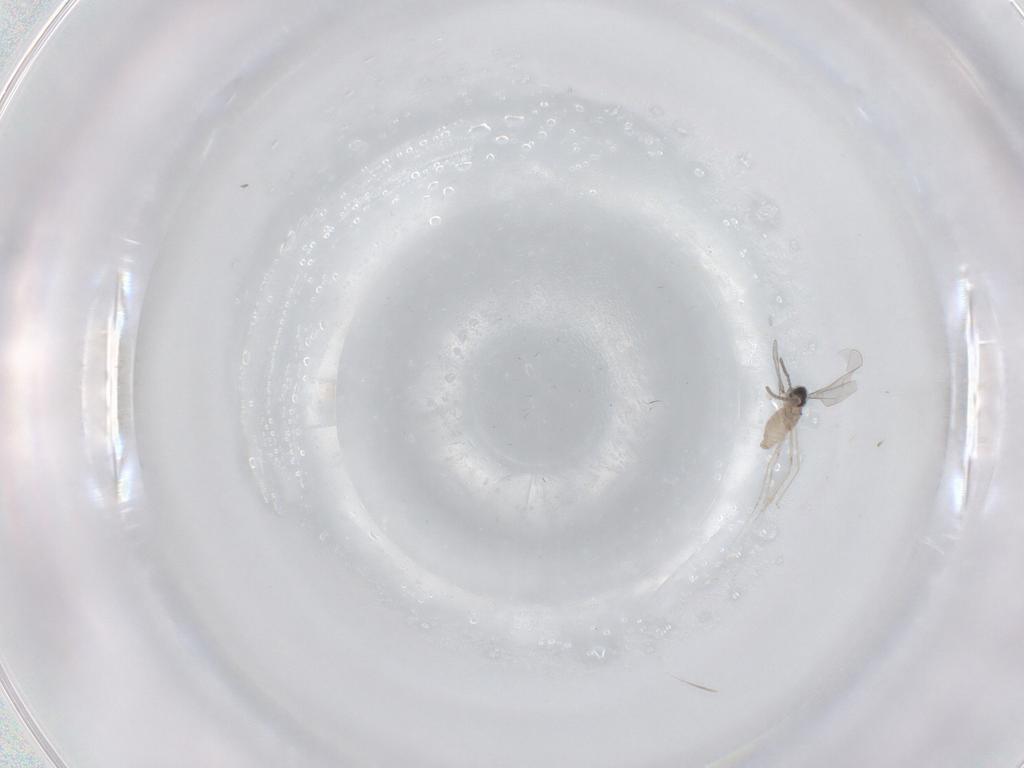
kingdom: Animalia
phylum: Arthropoda
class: Insecta
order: Diptera
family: Cecidomyiidae
